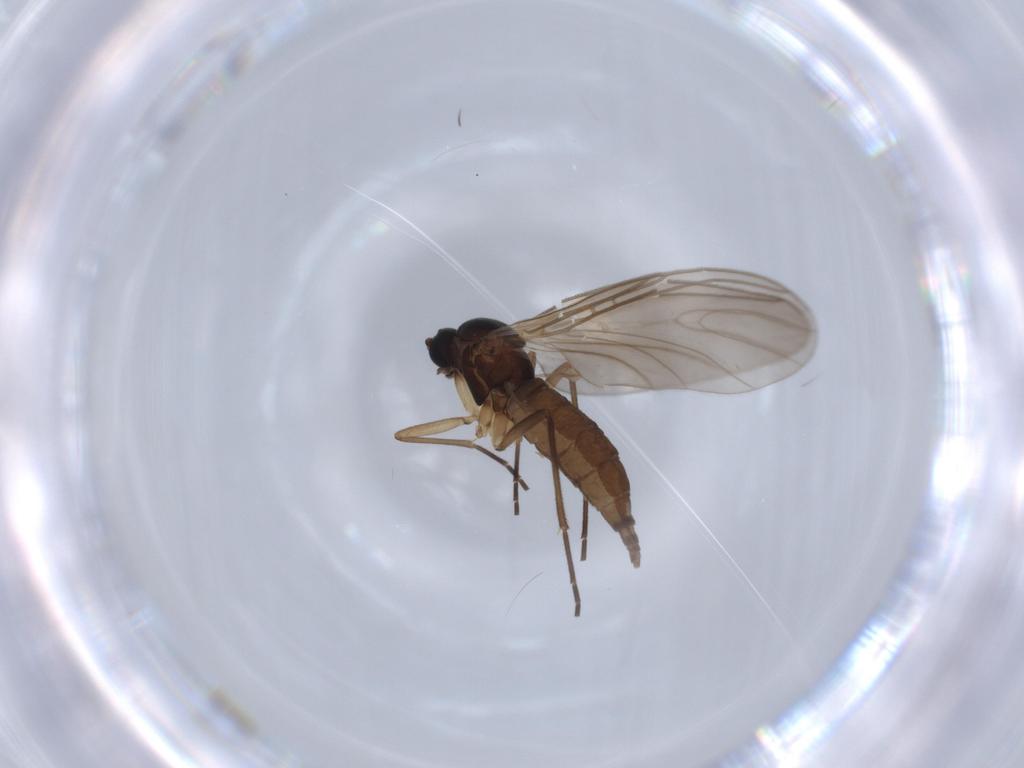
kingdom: Animalia
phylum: Arthropoda
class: Insecta
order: Diptera
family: Sciaridae
